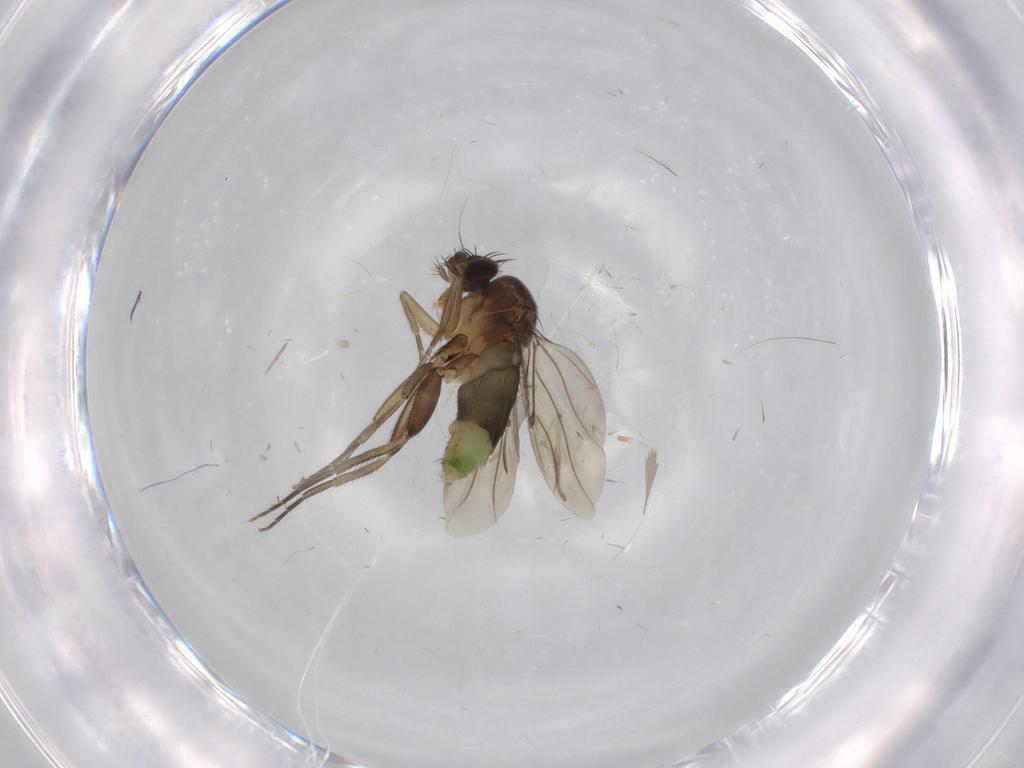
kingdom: Animalia
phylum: Arthropoda
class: Insecta
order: Diptera
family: Phoridae
